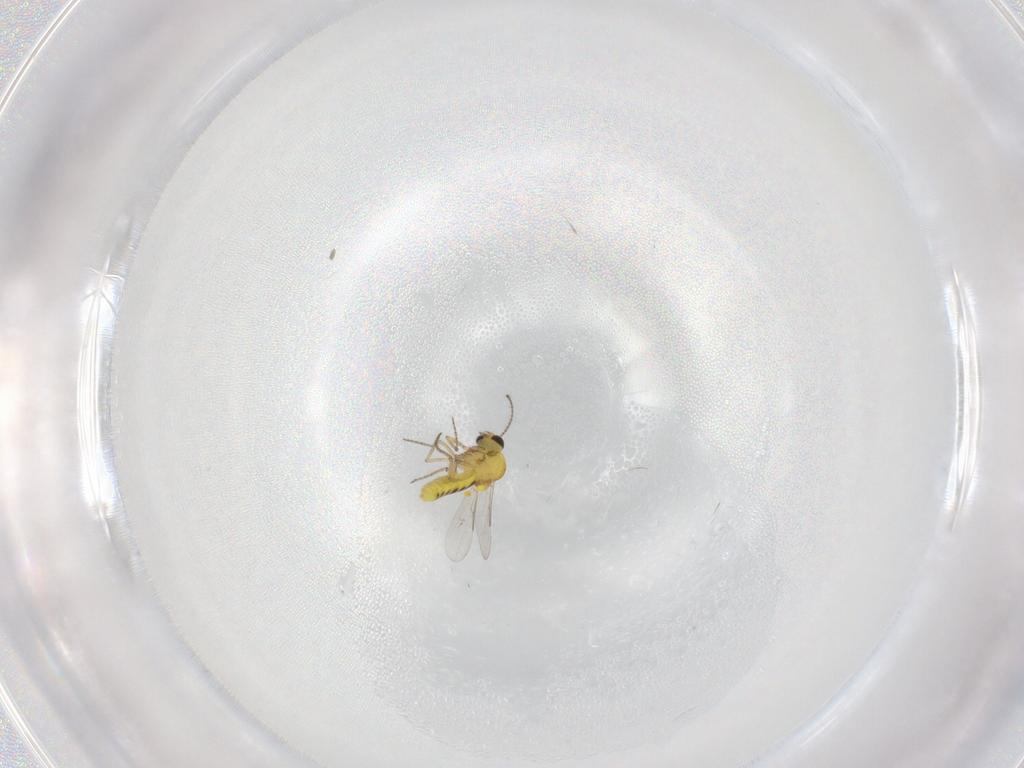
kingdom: Animalia
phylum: Arthropoda
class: Insecta
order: Diptera
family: Ceratopogonidae
